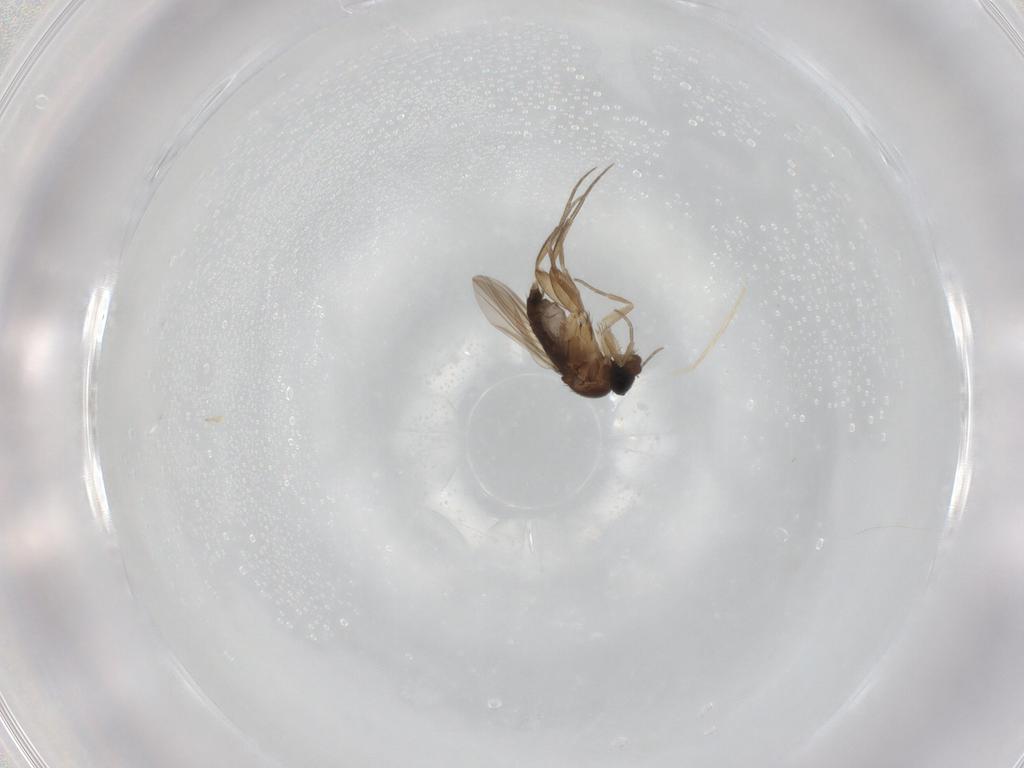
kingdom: Animalia
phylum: Arthropoda
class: Insecta
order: Diptera
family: Phoridae
